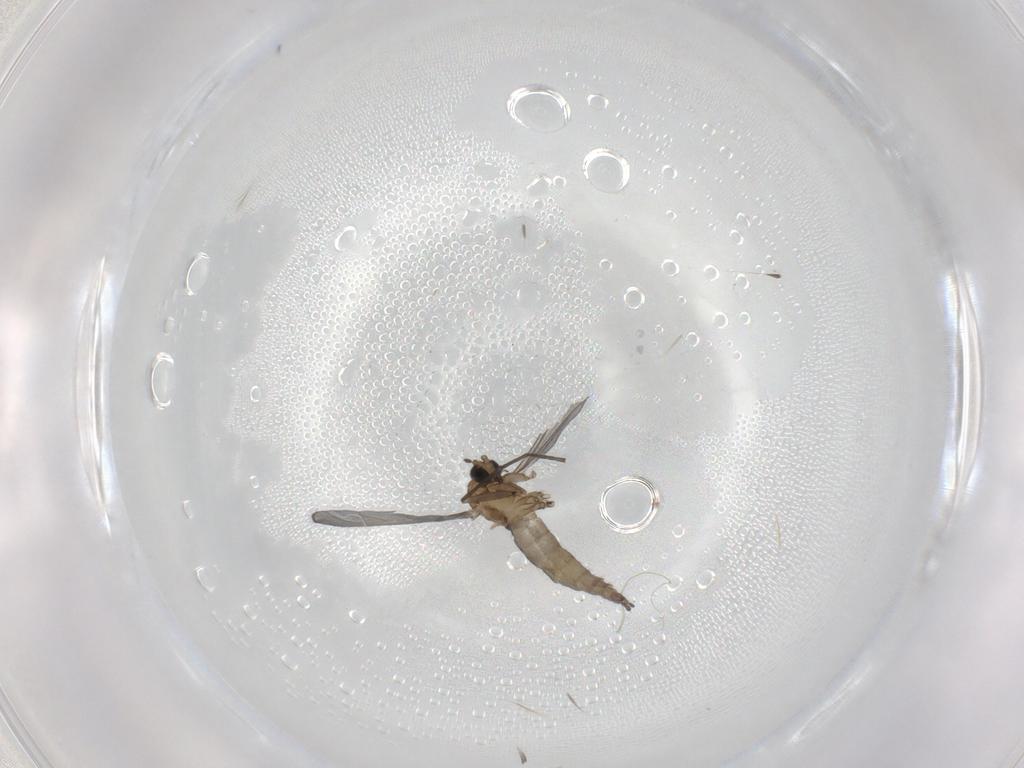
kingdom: Animalia
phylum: Arthropoda
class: Insecta
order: Diptera
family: Sciaridae
